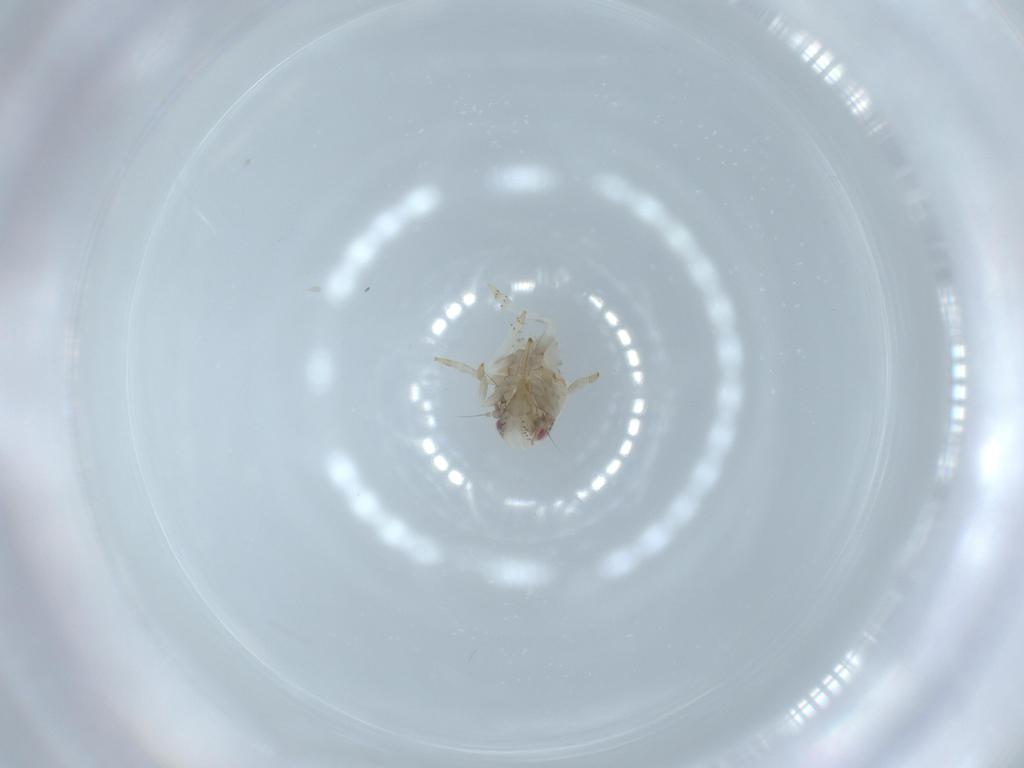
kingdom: Animalia
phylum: Arthropoda
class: Insecta
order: Hemiptera
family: Acanaloniidae
